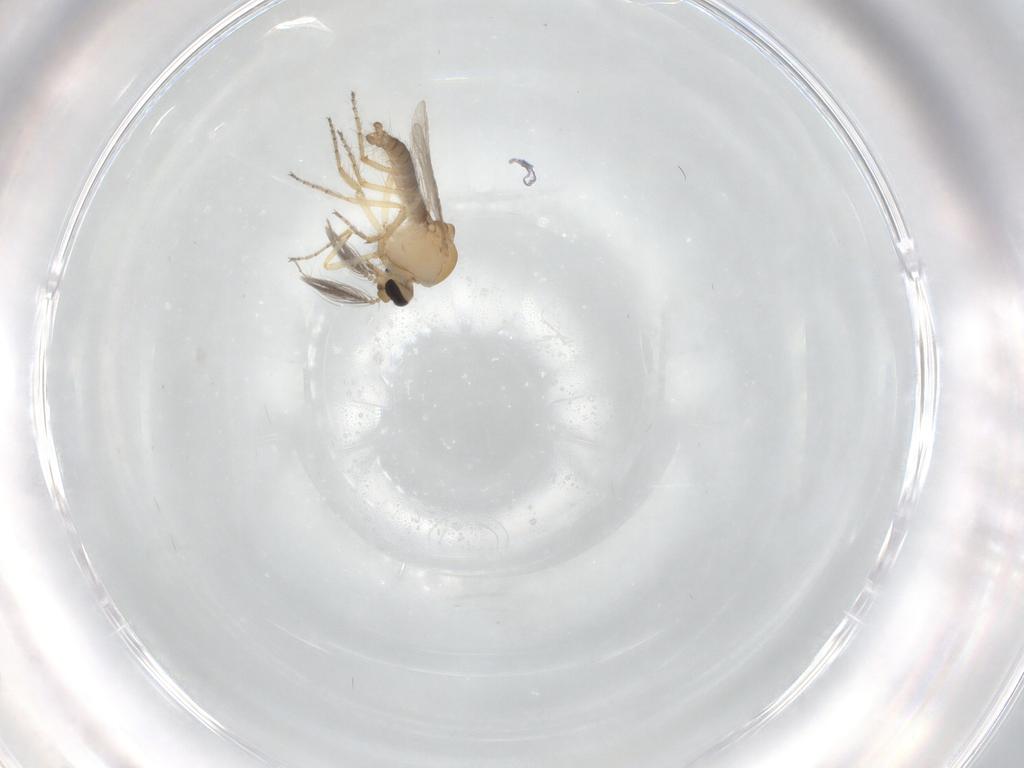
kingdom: Animalia
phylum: Arthropoda
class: Insecta
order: Diptera
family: Ceratopogonidae
